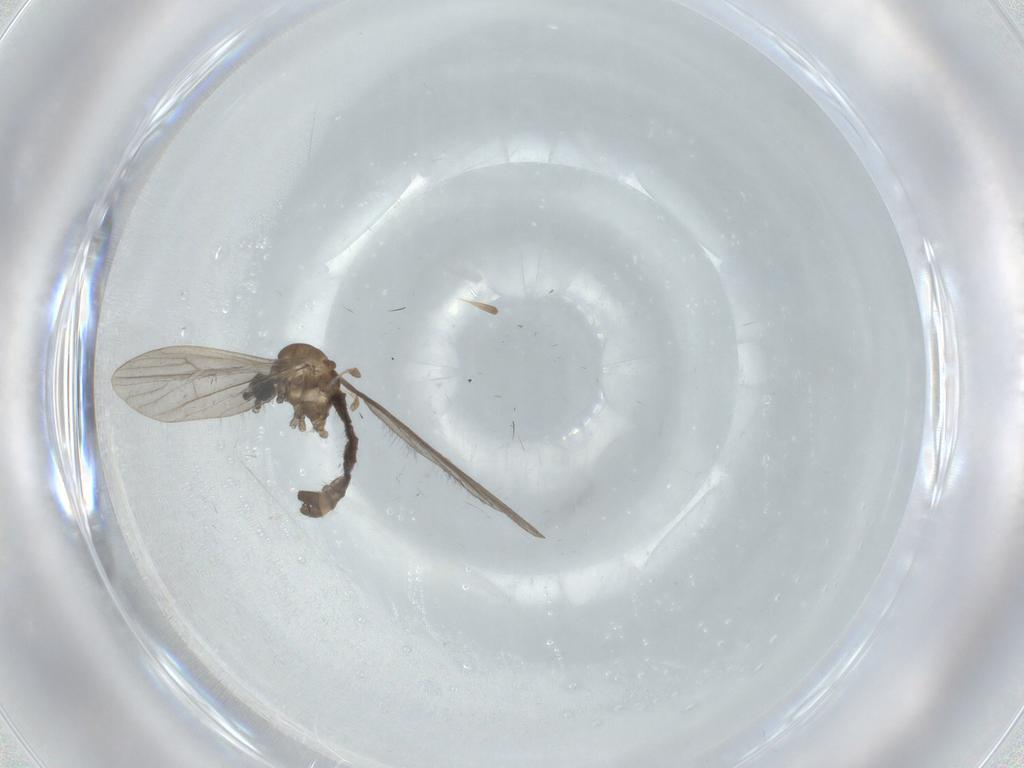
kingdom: Animalia
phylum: Arthropoda
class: Insecta
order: Diptera
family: Limoniidae
